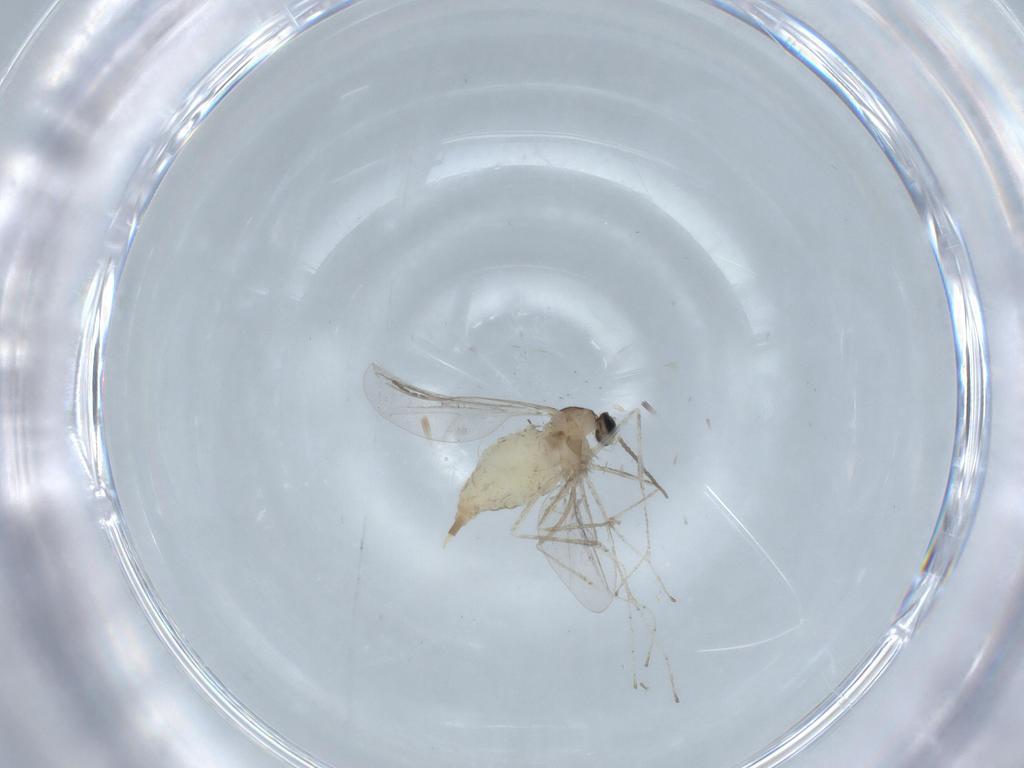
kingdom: Animalia
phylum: Arthropoda
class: Insecta
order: Diptera
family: Cecidomyiidae
